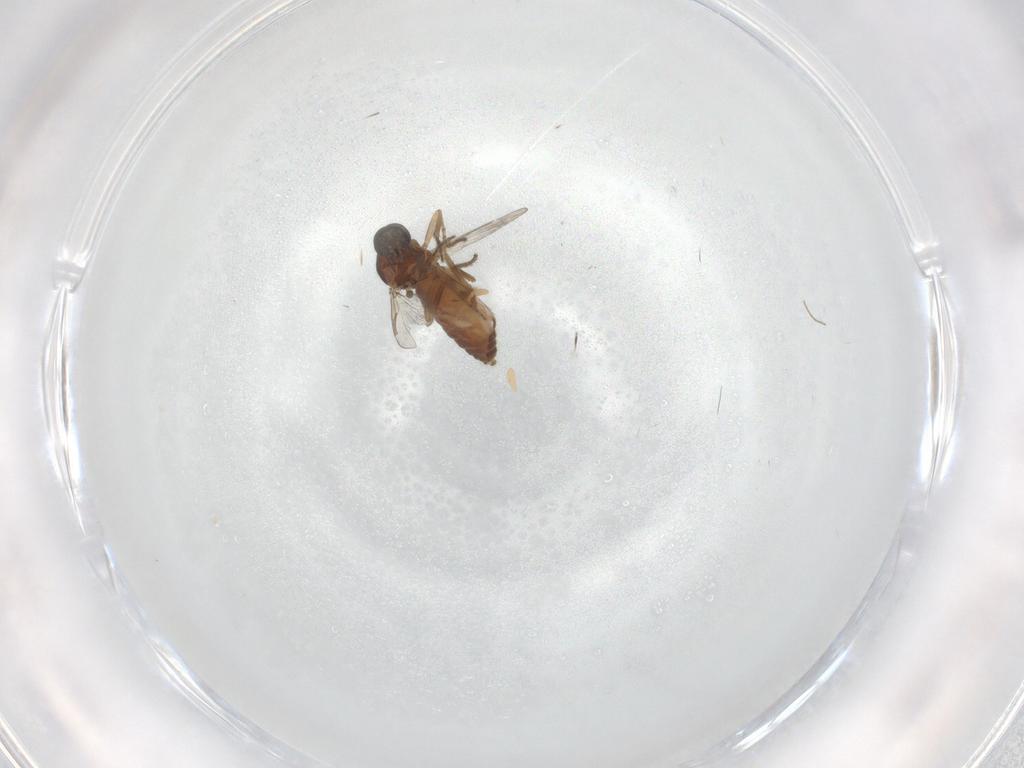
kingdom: Animalia
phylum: Arthropoda
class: Insecta
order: Diptera
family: Ceratopogonidae
